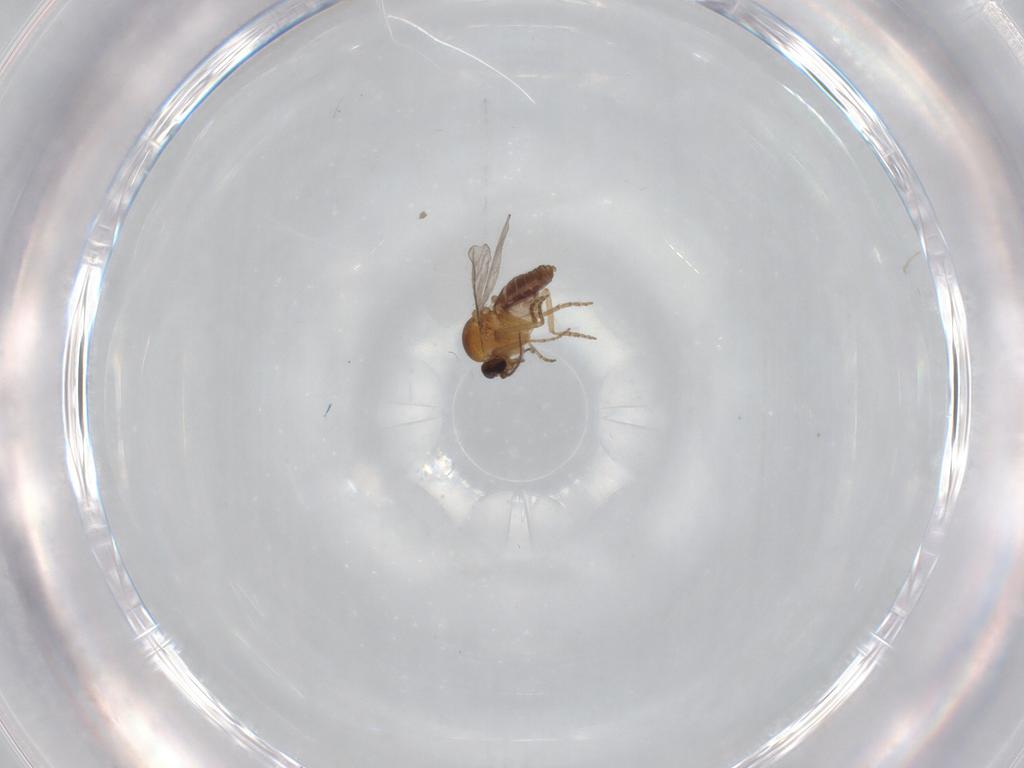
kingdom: Animalia
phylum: Arthropoda
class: Insecta
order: Diptera
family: Ceratopogonidae
